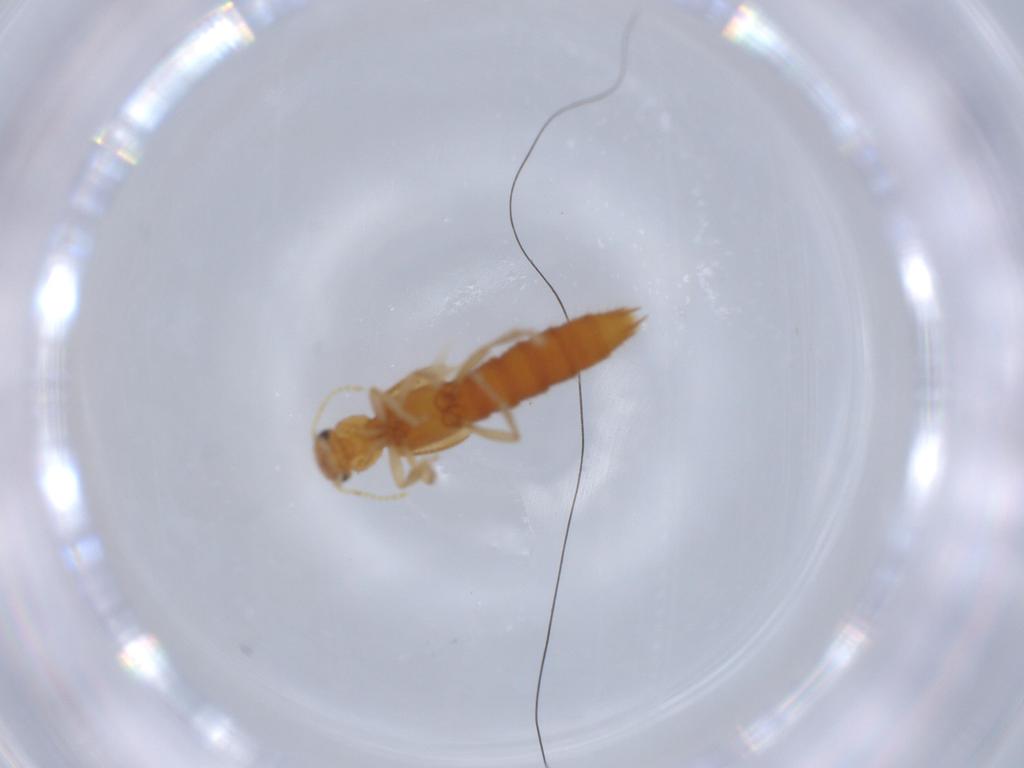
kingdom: Animalia
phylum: Arthropoda
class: Insecta
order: Coleoptera
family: Staphylinidae
